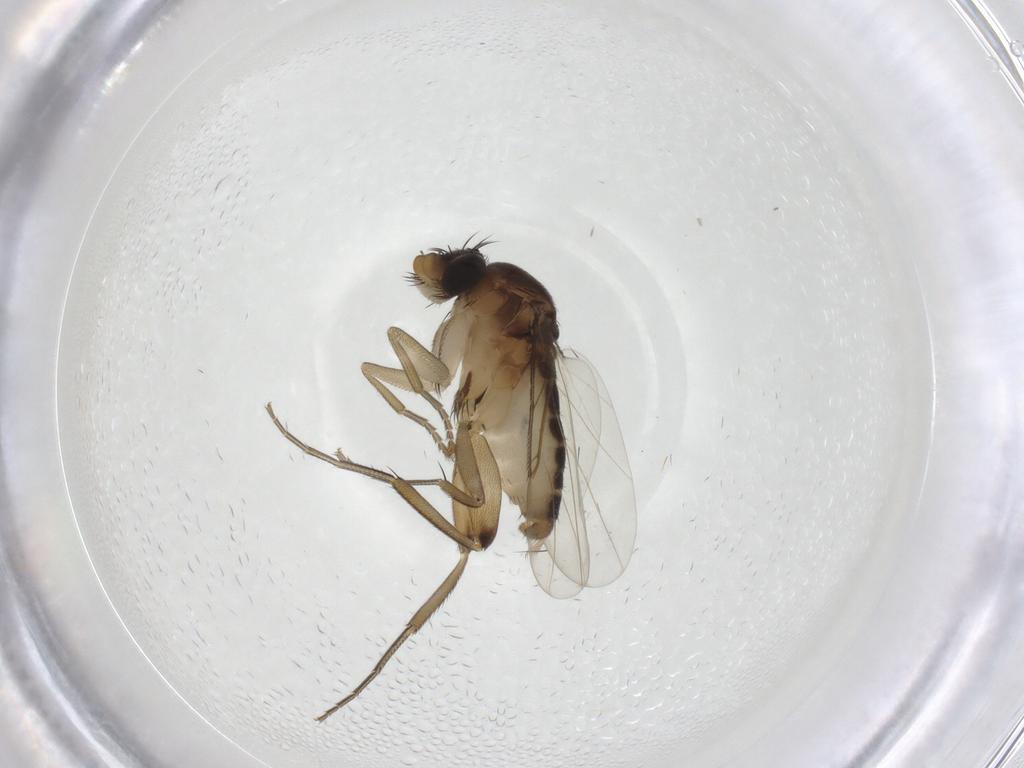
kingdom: Animalia
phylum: Arthropoda
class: Insecta
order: Diptera
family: Phoridae
